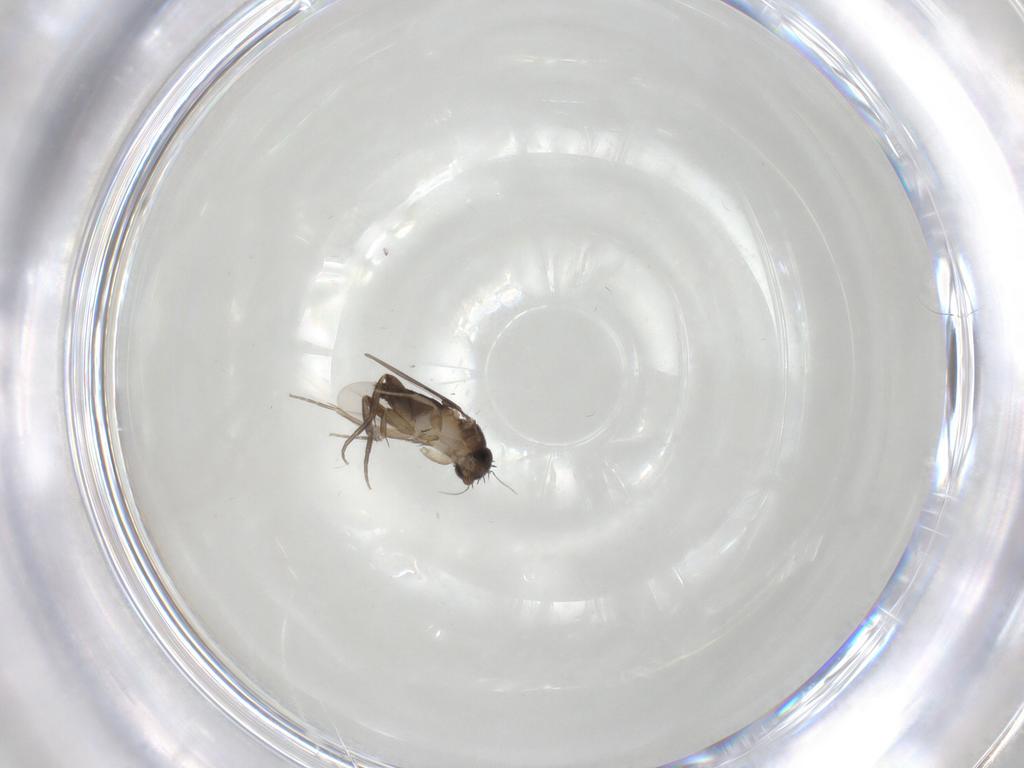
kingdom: Animalia
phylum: Arthropoda
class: Insecta
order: Diptera
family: Phoridae
